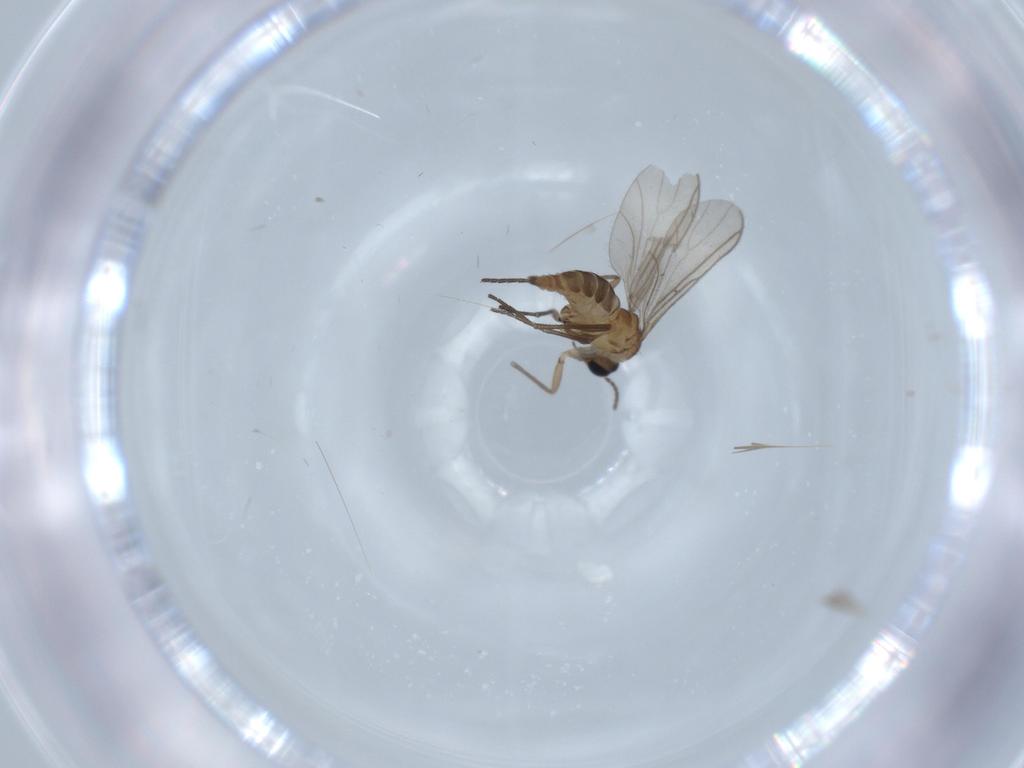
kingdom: Animalia
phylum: Arthropoda
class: Insecta
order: Diptera
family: Sciaridae
